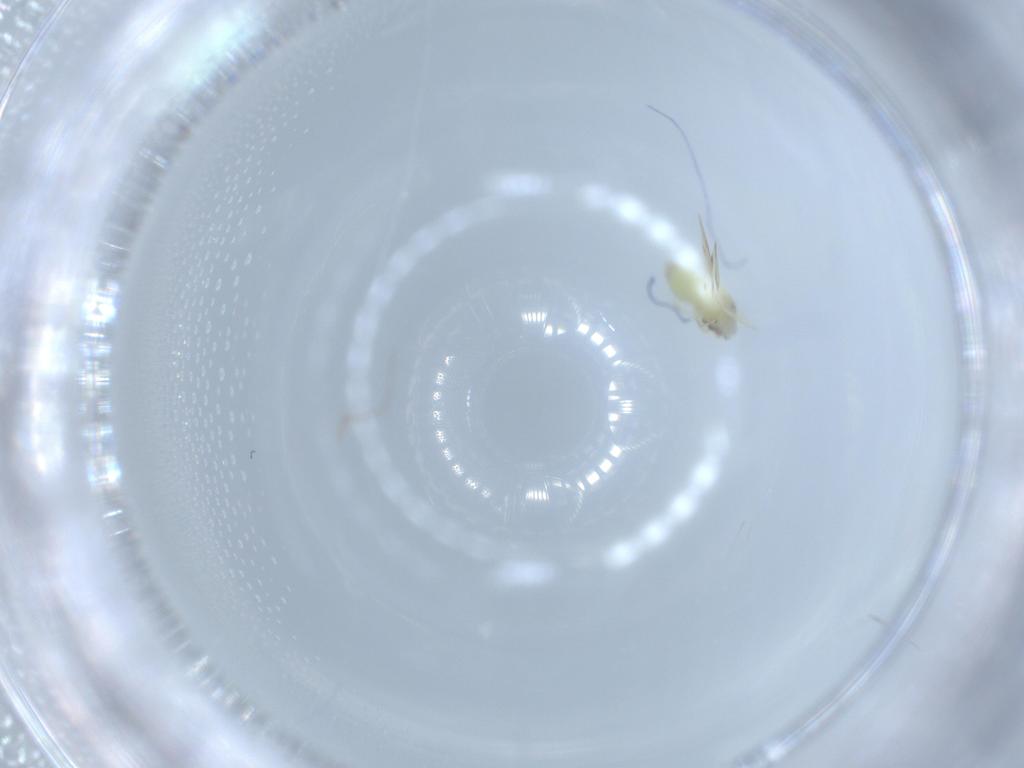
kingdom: Animalia
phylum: Arthropoda
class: Insecta
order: Hemiptera
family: Aleyrodidae
